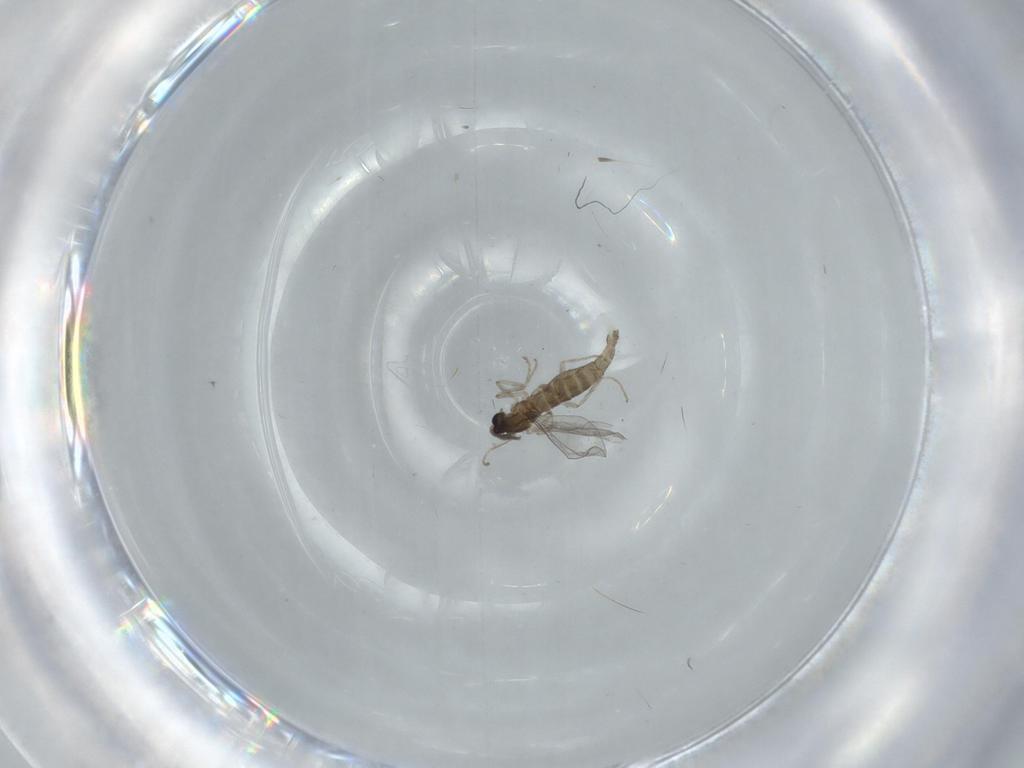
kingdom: Animalia
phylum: Arthropoda
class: Insecta
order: Diptera
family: Cecidomyiidae
